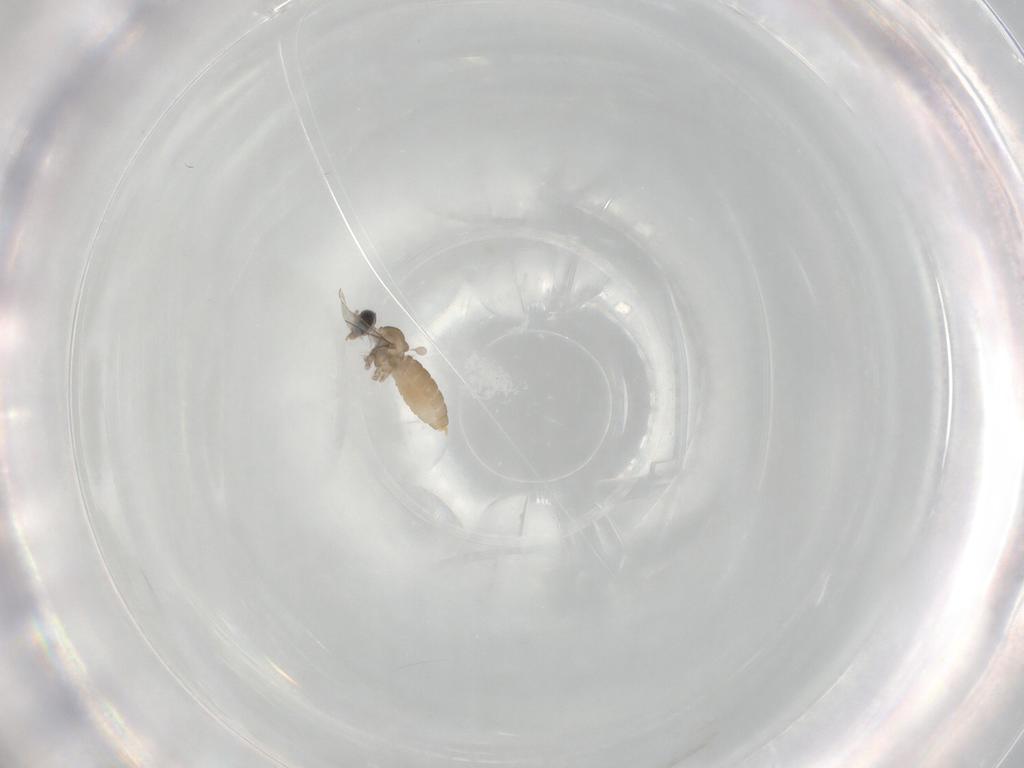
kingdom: Animalia
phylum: Arthropoda
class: Insecta
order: Diptera
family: Cecidomyiidae
